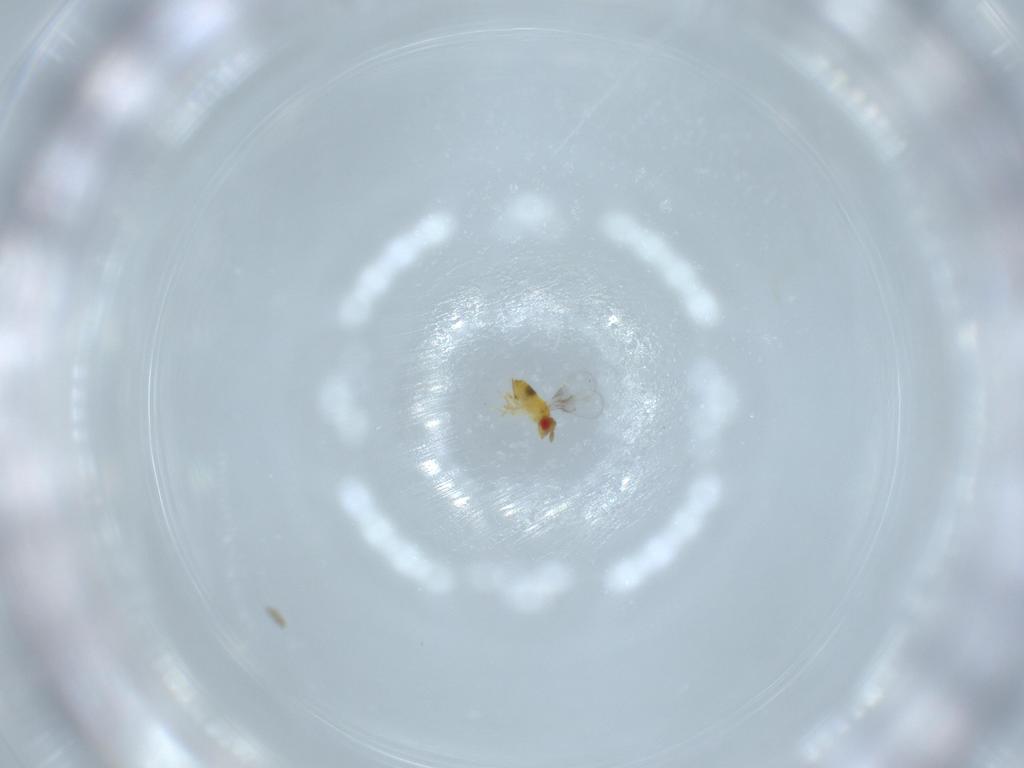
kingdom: Animalia
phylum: Arthropoda
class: Insecta
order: Hymenoptera
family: Trichogrammatidae
